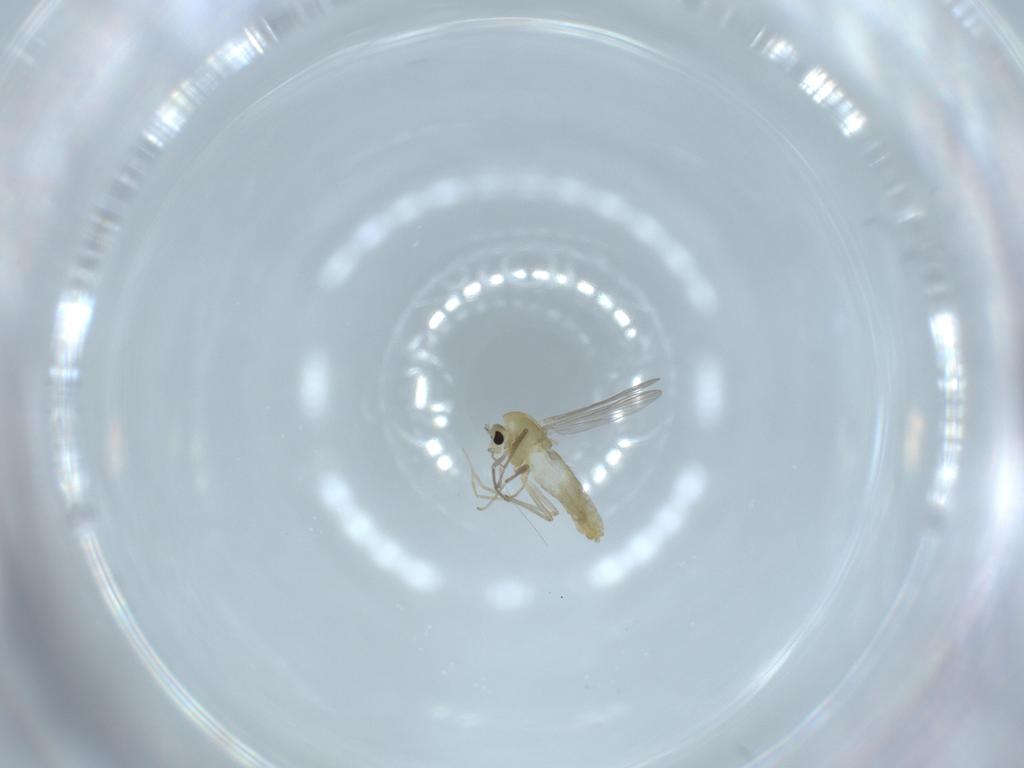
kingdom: Animalia
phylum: Arthropoda
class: Insecta
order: Diptera
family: Chironomidae
